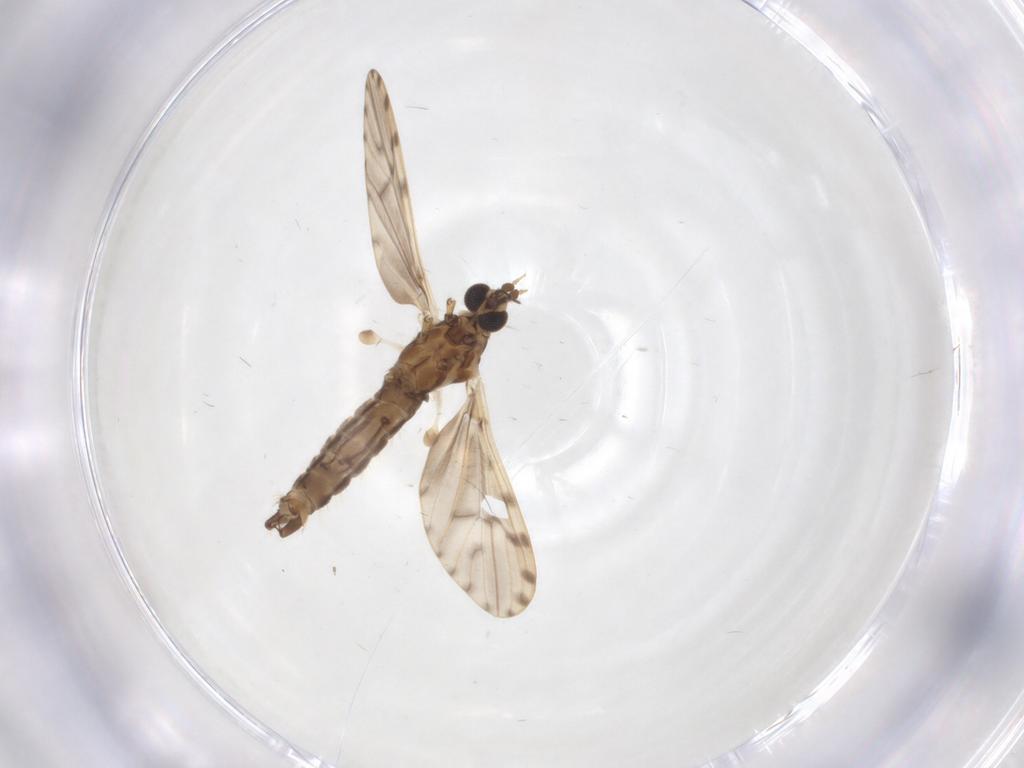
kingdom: Animalia
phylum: Arthropoda
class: Insecta
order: Diptera
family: Limoniidae
